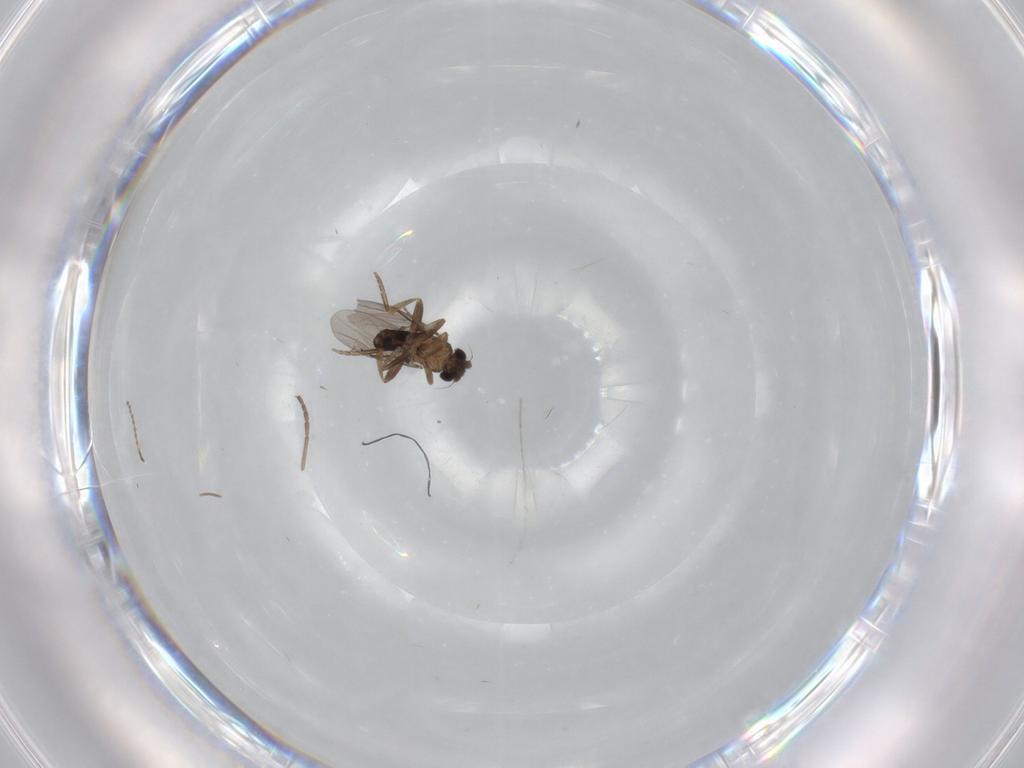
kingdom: Animalia
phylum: Arthropoda
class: Insecta
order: Diptera
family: Cecidomyiidae
